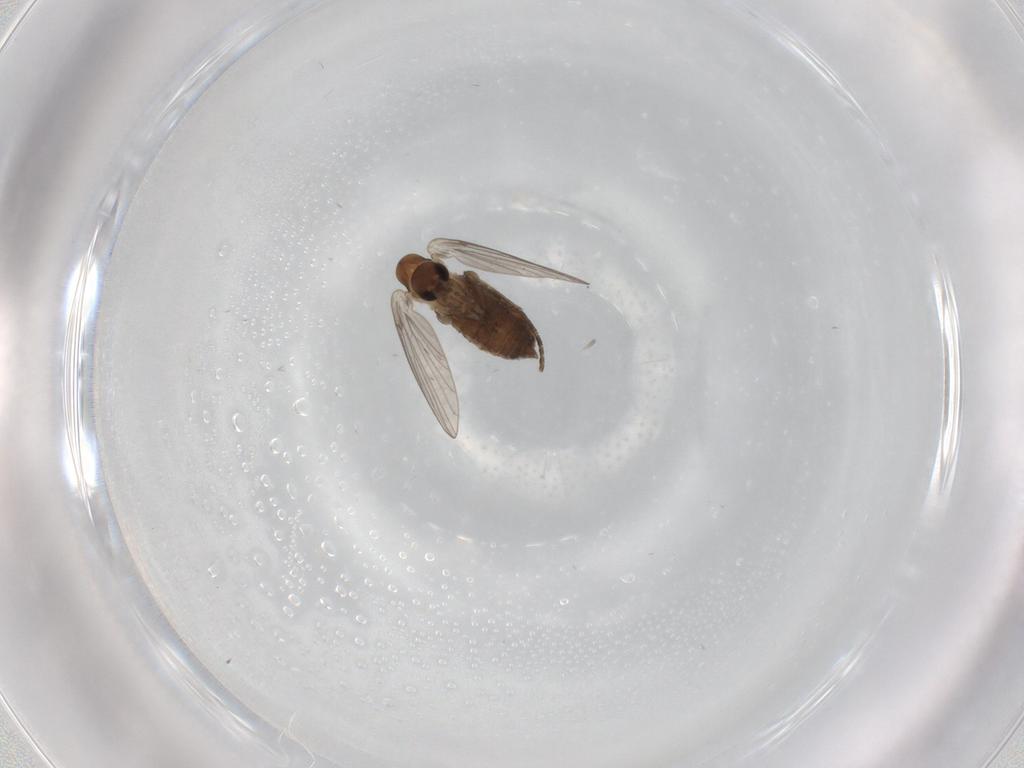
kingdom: Animalia
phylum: Arthropoda
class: Insecta
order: Diptera
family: Psychodidae
